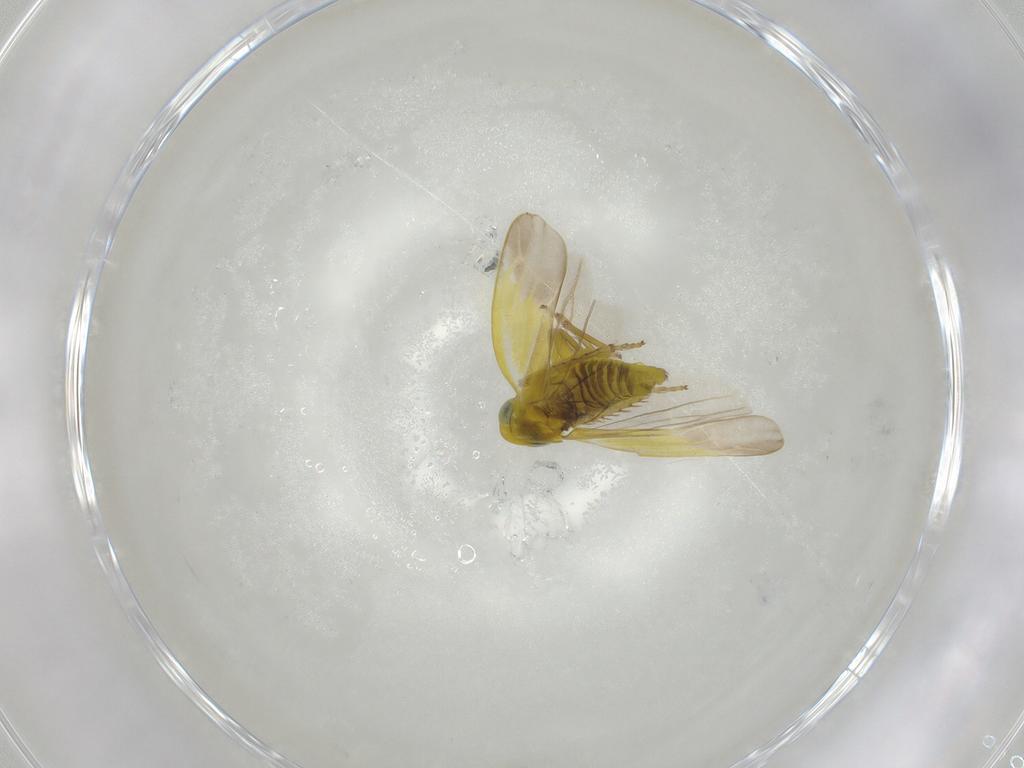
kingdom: Animalia
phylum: Arthropoda
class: Insecta
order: Hemiptera
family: Cicadellidae
